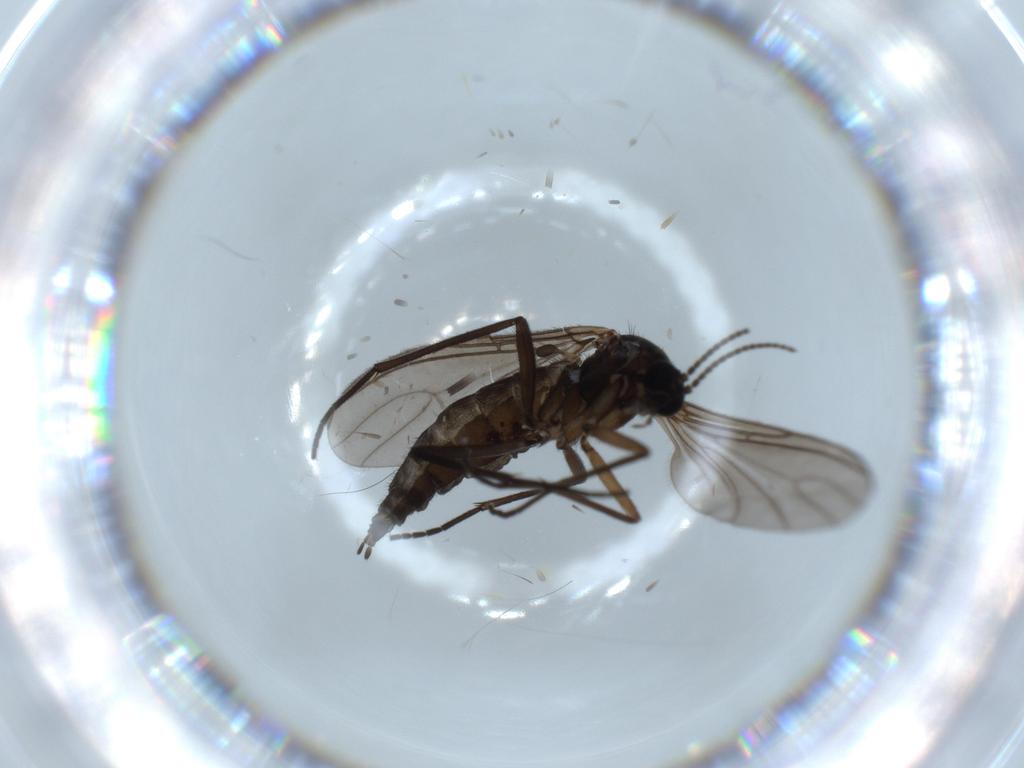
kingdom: Animalia
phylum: Arthropoda
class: Insecta
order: Diptera
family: Sciaridae
